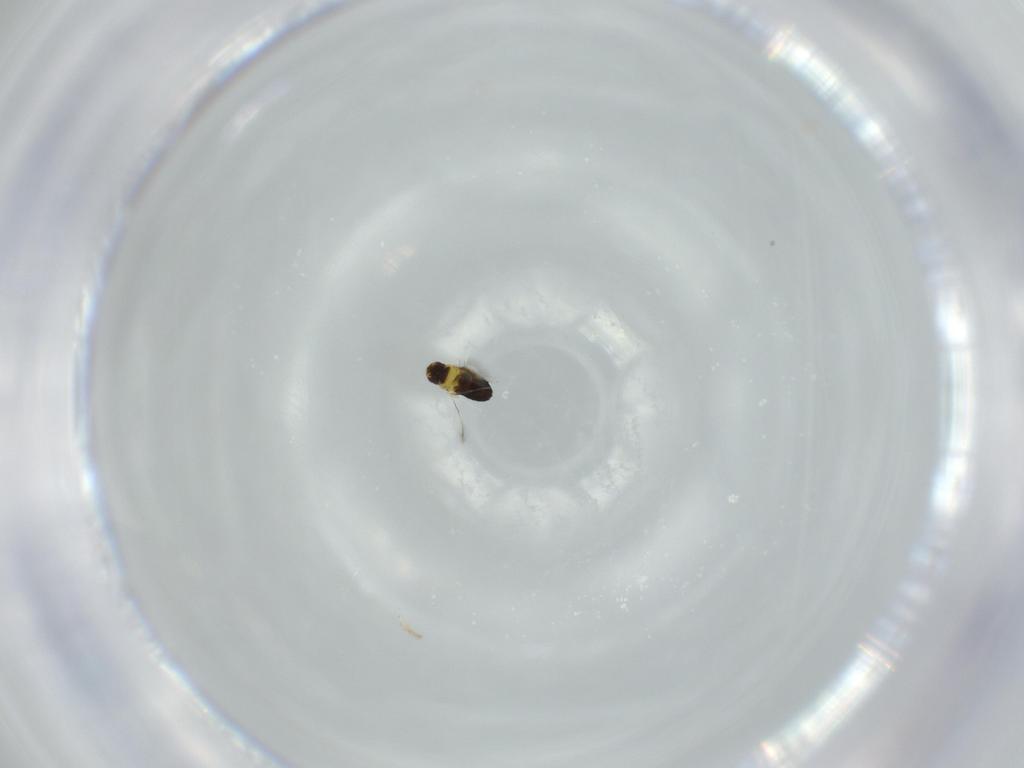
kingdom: Animalia
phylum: Arthropoda
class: Insecta
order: Hymenoptera
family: Signiphoridae
